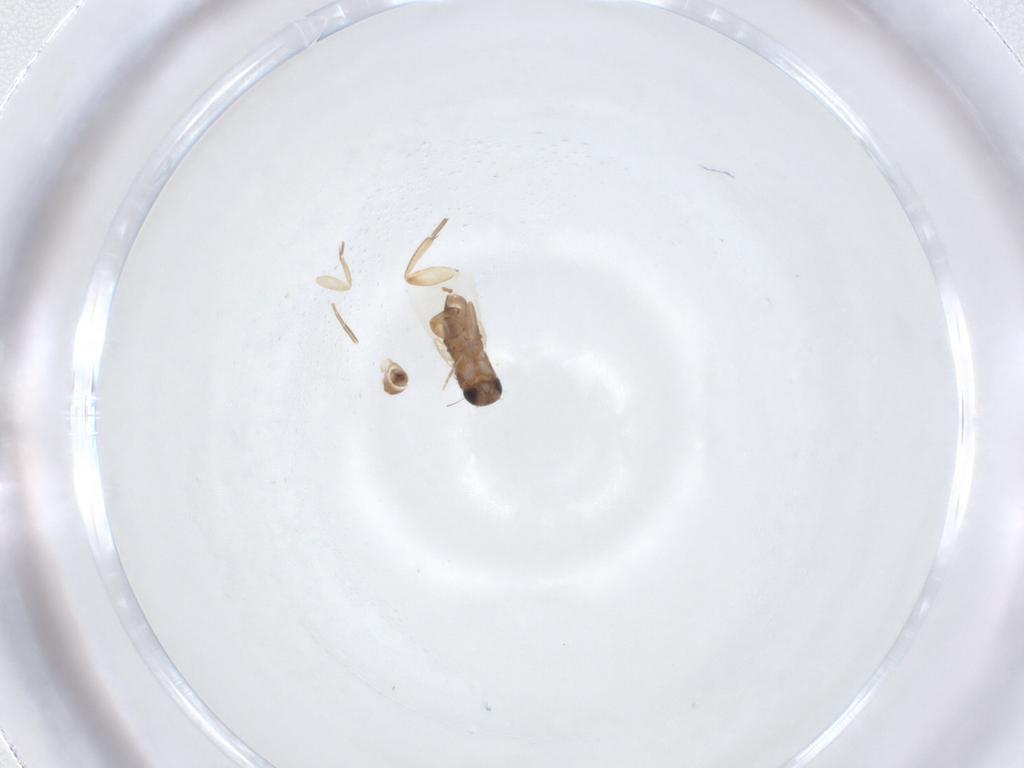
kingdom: Animalia
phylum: Arthropoda
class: Insecta
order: Diptera
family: Phoridae
